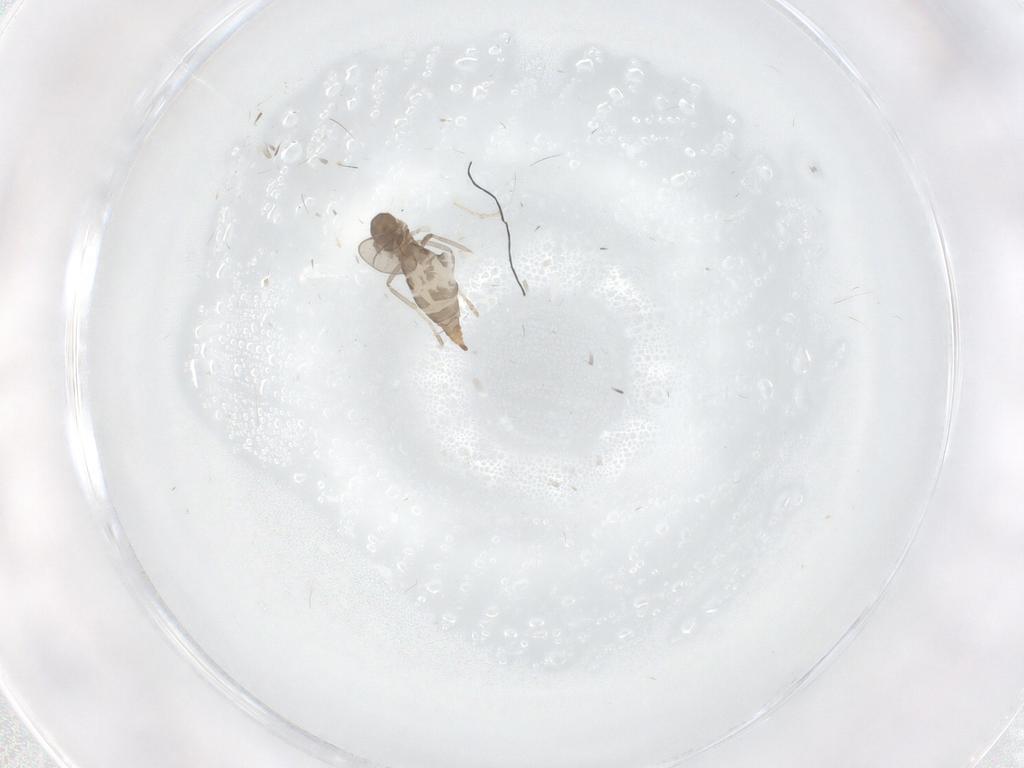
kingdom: Animalia
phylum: Arthropoda
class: Insecta
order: Diptera
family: Cecidomyiidae
